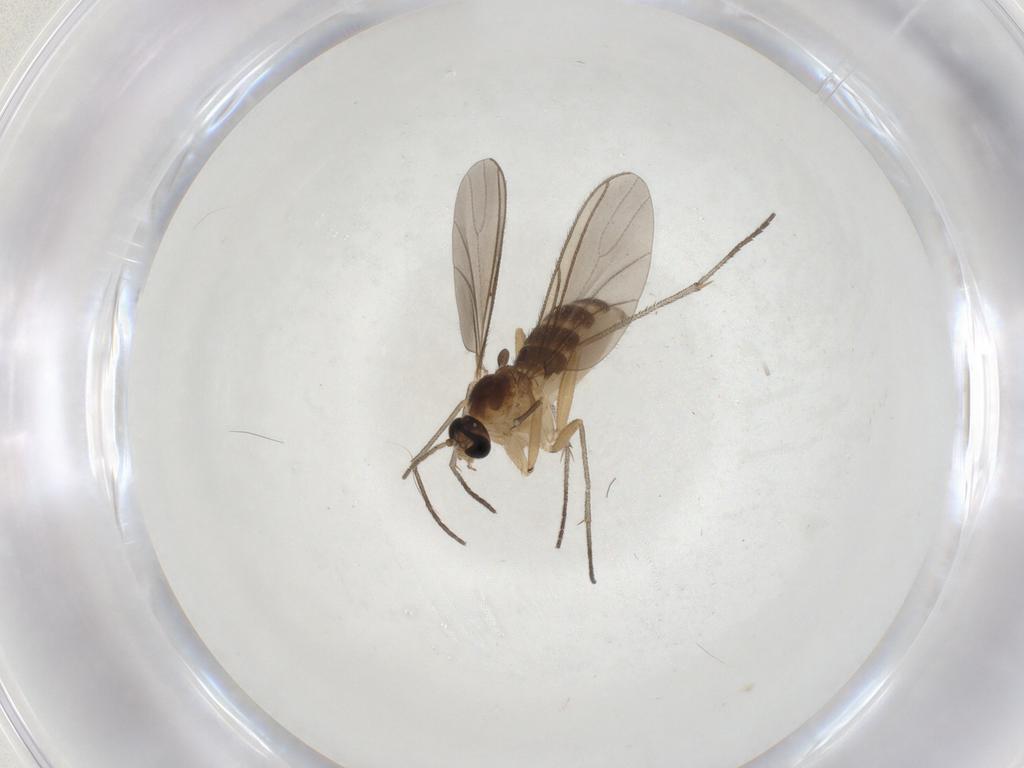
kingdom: Animalia
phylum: Arthropoda
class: Insecta
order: Diptera
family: Sciaridae
